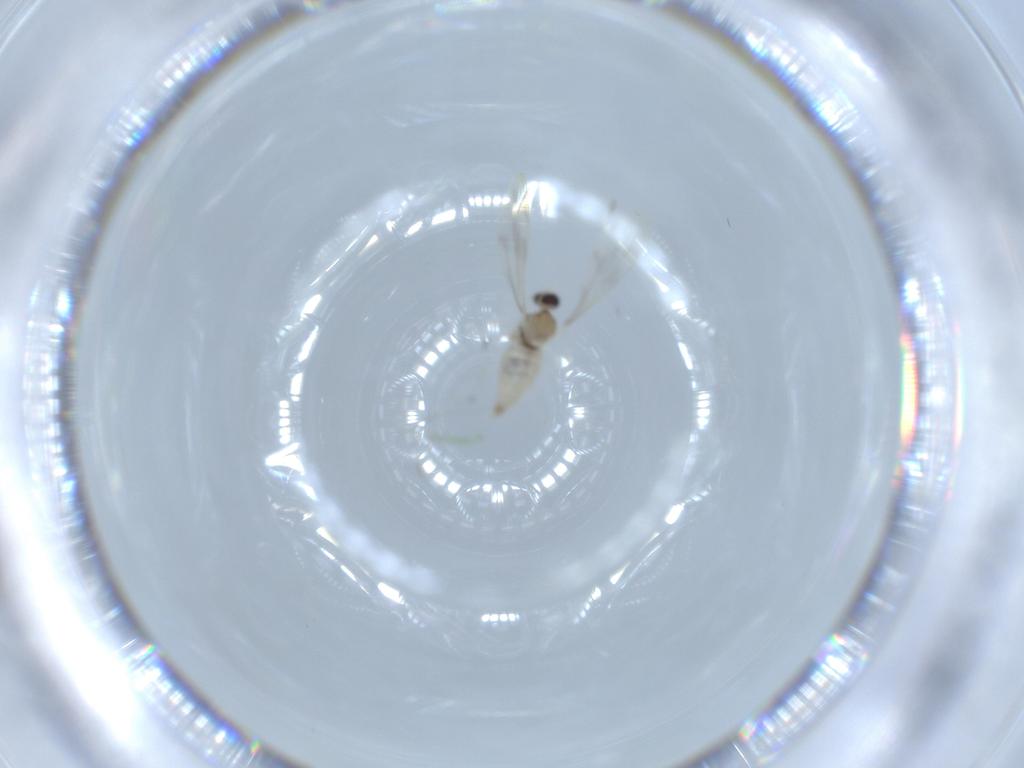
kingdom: Animalia
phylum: Arthropoda
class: Insecta
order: Diptera
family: Cecidomyiidae
